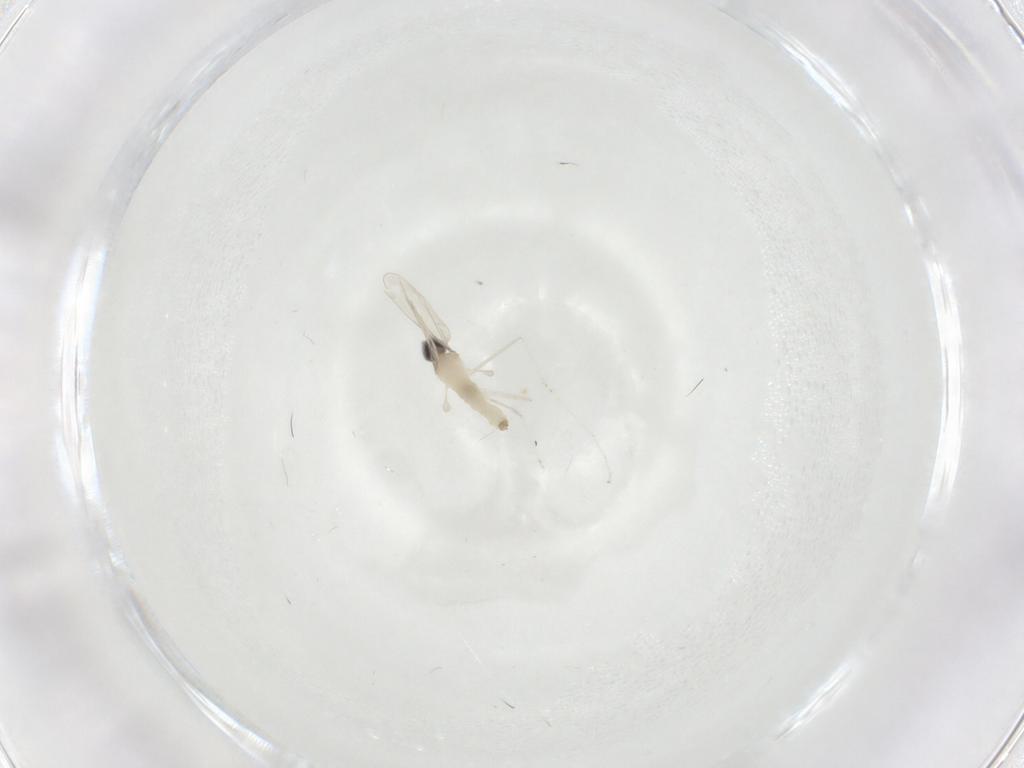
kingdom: Animalia
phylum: Arthropoda
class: Insecta
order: Diptera
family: Cecidomyiidae
